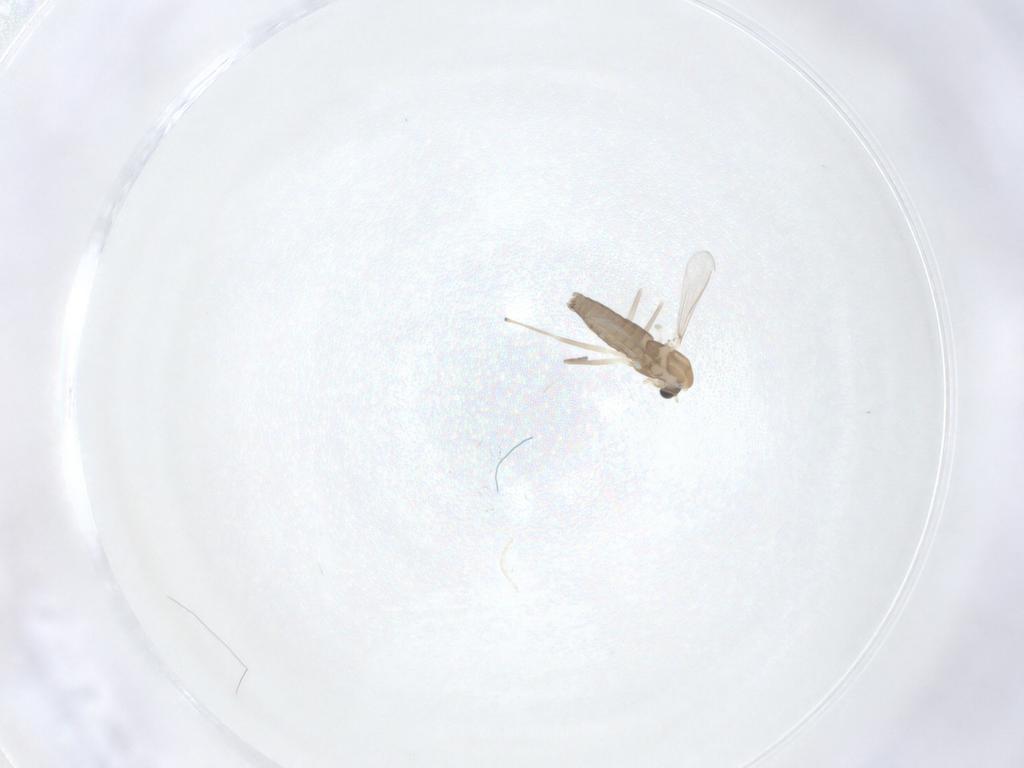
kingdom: Animalia
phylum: Arthropoda
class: Insecta
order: Diptera
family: Chironomidae
